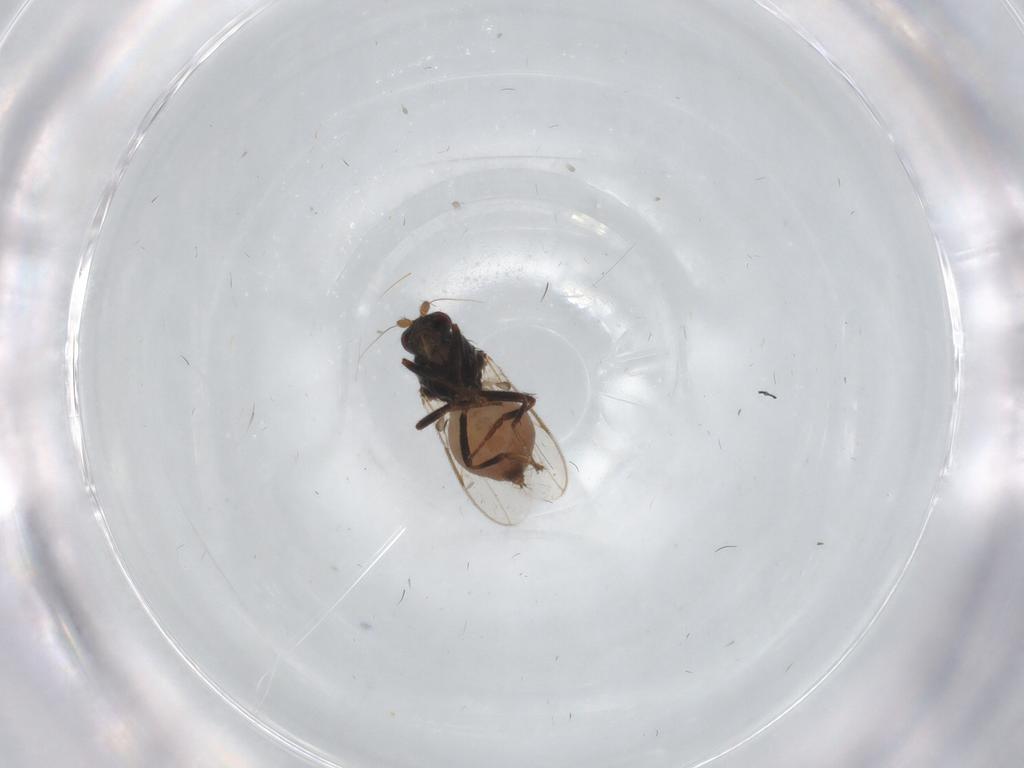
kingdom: Animalia
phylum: Arthropoda
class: Insecta
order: Diptera
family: Sphaeroceridae
